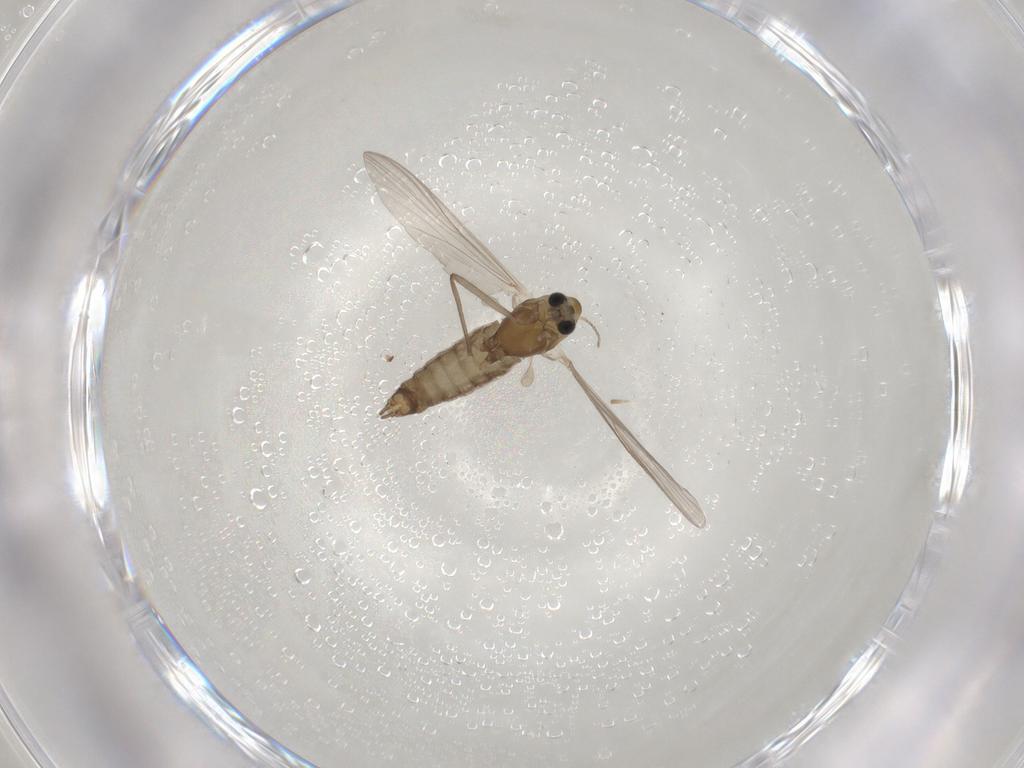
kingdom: Animalia
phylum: Arthropoda
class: Insecta
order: Diptera
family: Chironomidae
